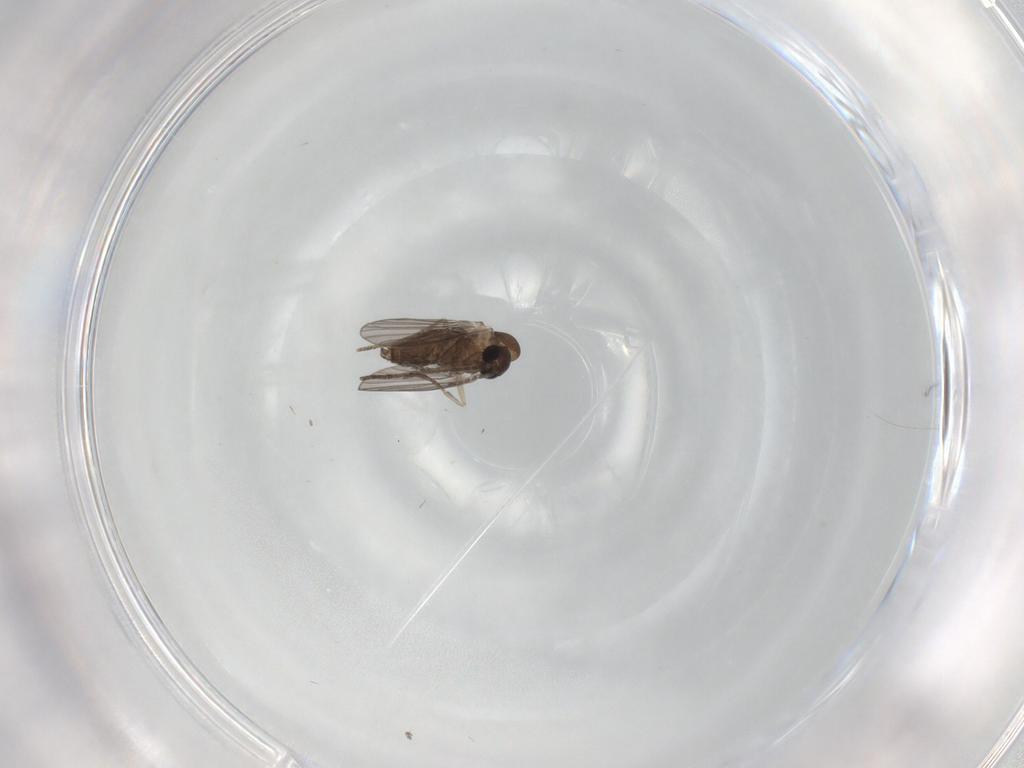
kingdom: Animalia
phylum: Arthropoda
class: Insecta
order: Diptera
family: Psychodidae
